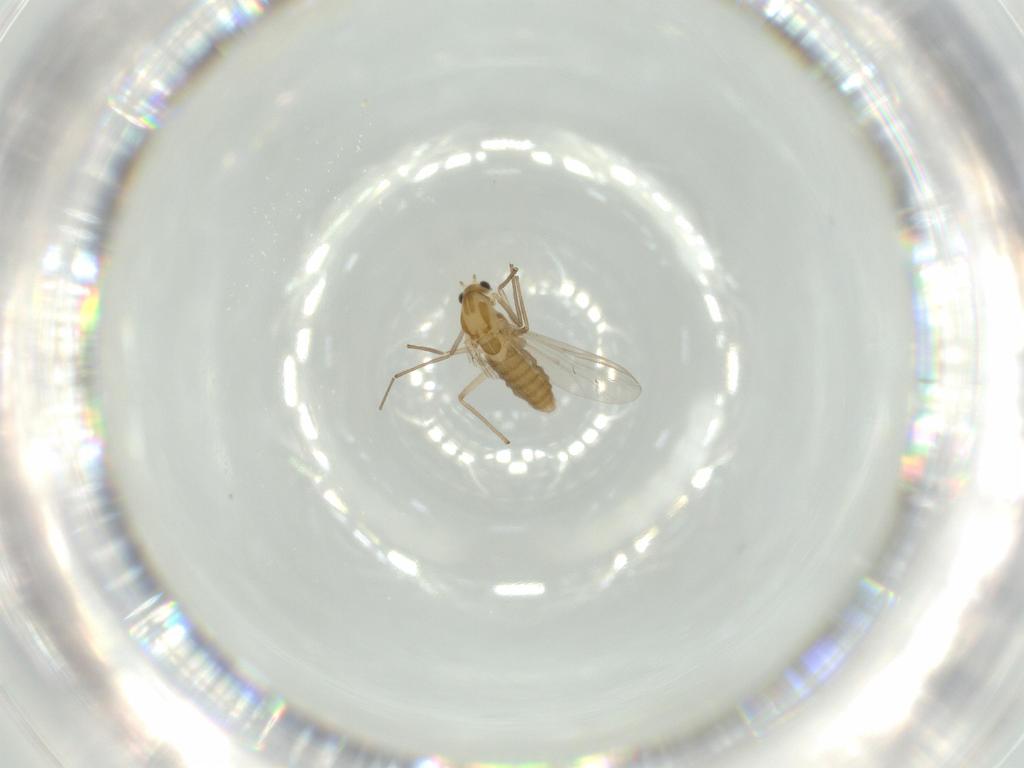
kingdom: Animalia
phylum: Arthropoda
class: Insecta
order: Diptera
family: Chironomidae
